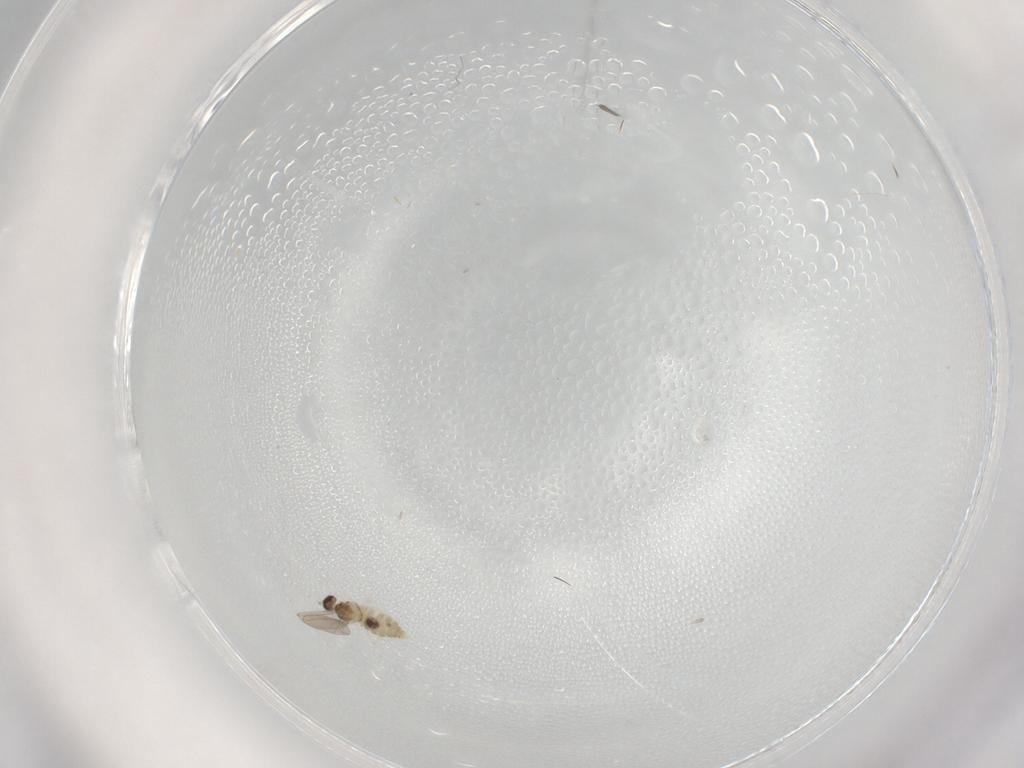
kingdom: Animalia
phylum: Arthropoda
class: Insecta
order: Diptera
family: Cecidomyiidae
